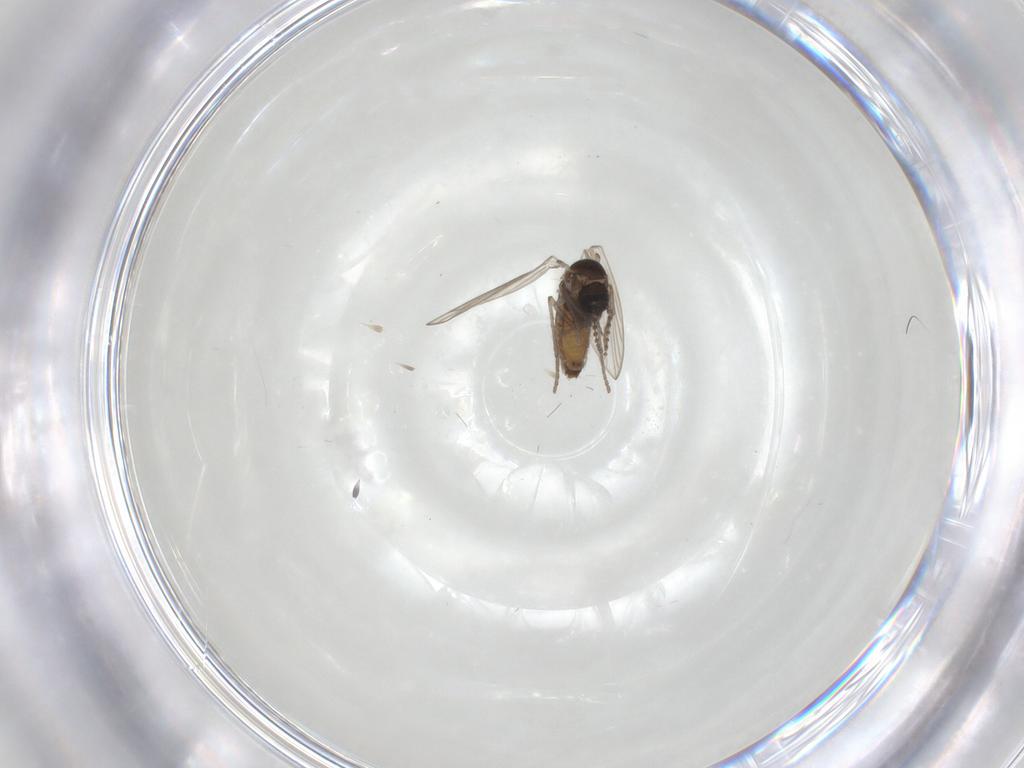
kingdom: Animalia
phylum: Arthropoda
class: Insecta
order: Diptera
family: Psychodidae
